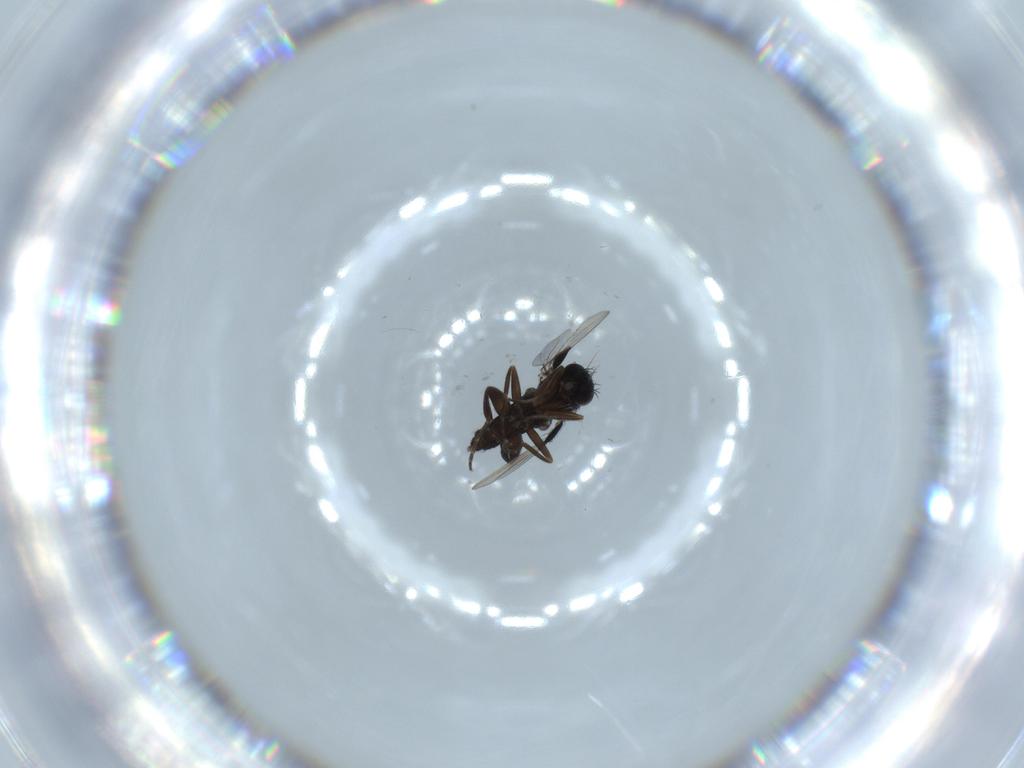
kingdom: Animalia
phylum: Arthropoda
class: Insecta
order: Diptera
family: Phoridae
